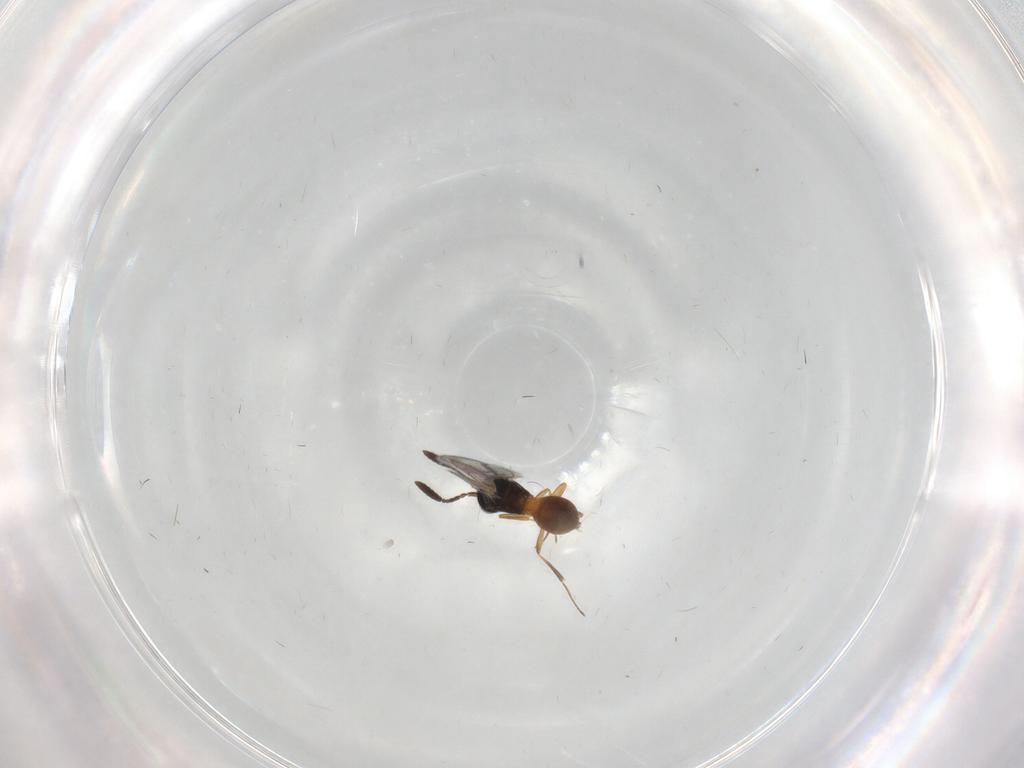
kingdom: Animalia
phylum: Arthropoda
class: Insecta
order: Hymenoptera
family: Scelionidae
